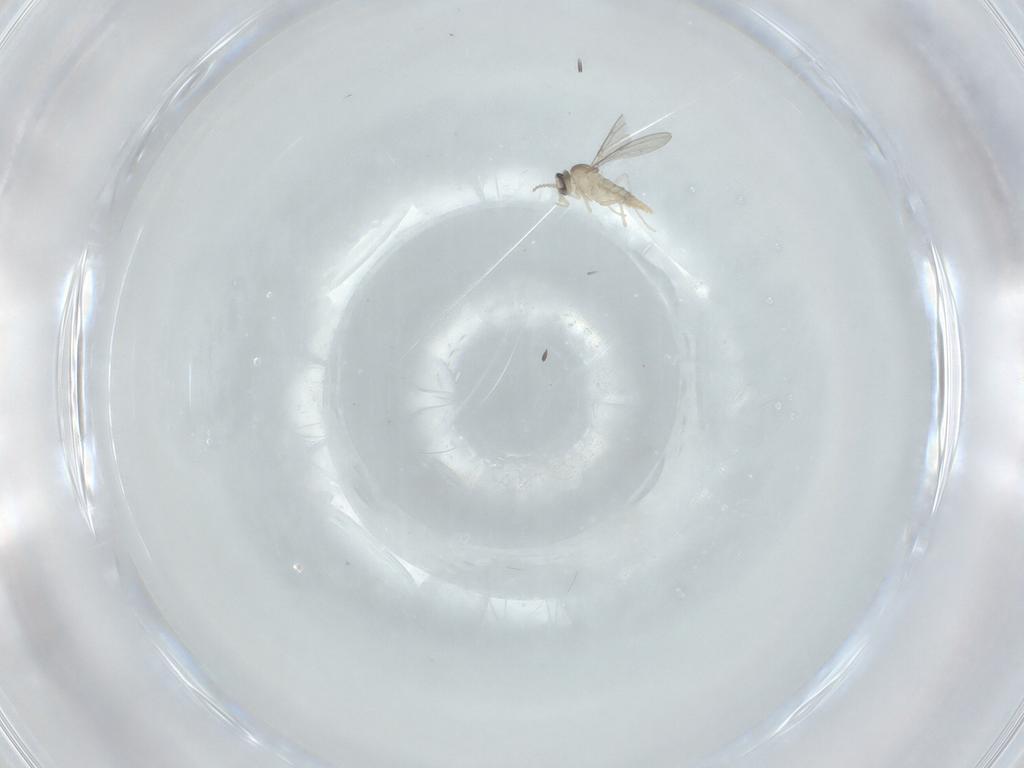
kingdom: Animalia
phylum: Arthropoda
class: Insecta
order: Diptera
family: Cecidomyiidae
